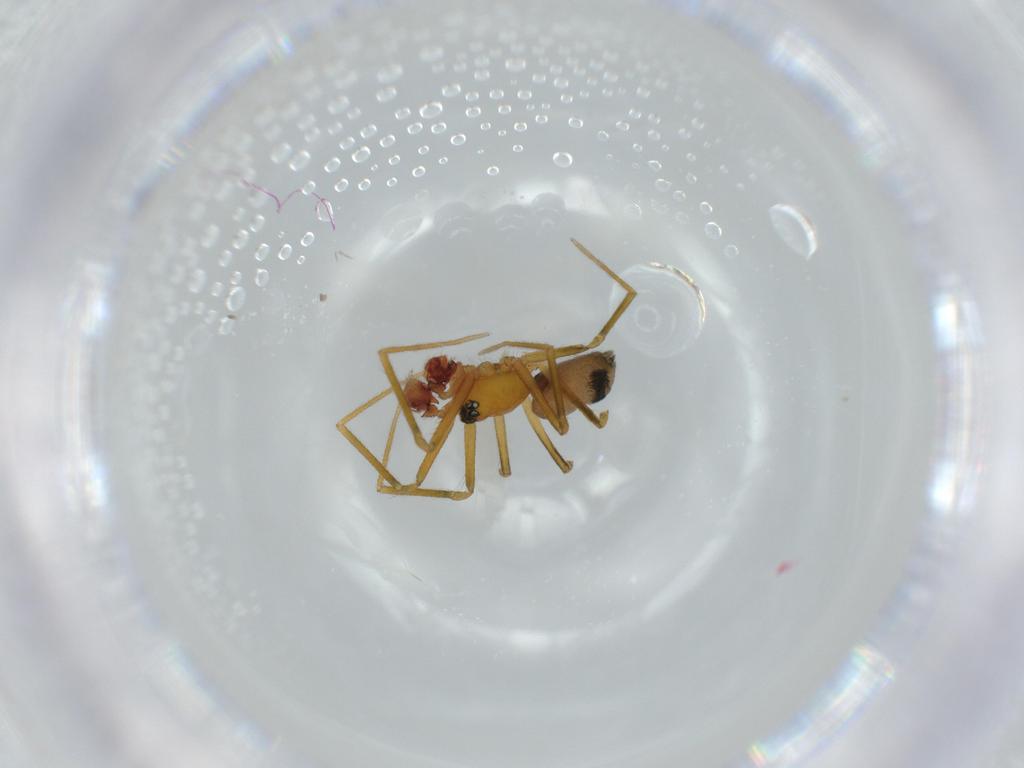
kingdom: Animalia
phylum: Arthropoda
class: Arachnida
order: Araneae
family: Linyphiidae
